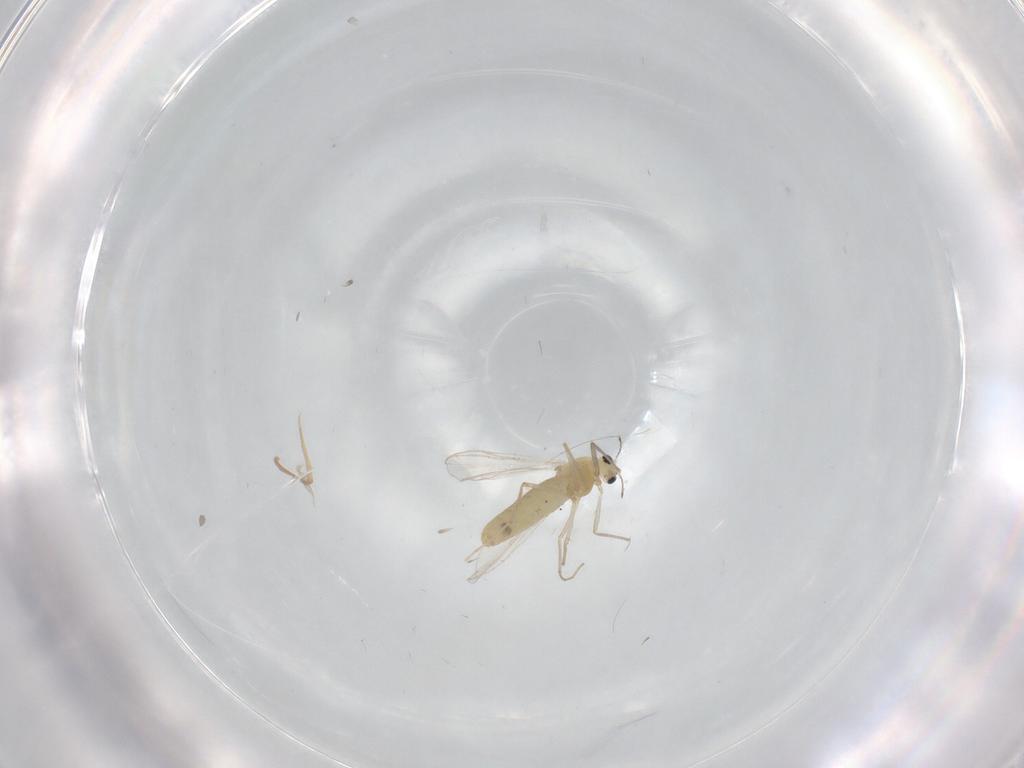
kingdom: Animalia
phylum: Arthropoda
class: Insecta
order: Diptera
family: Chironomidae
